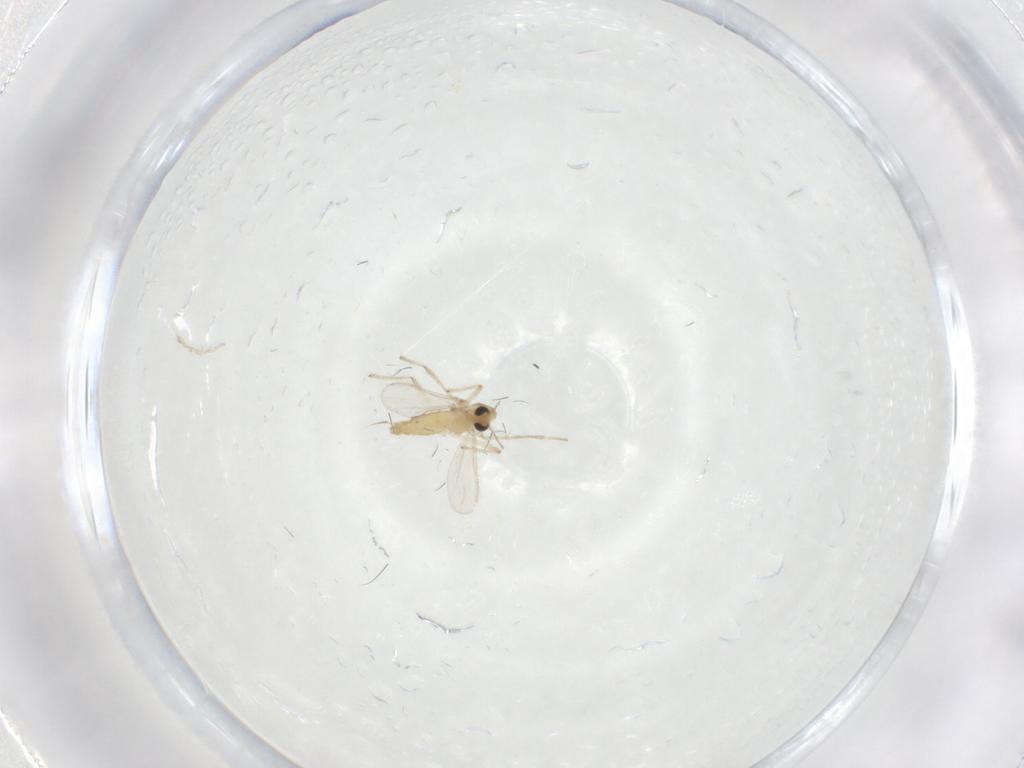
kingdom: Animalia
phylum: Arthropoda
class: Insecta
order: Diptera
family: Chironomidae
